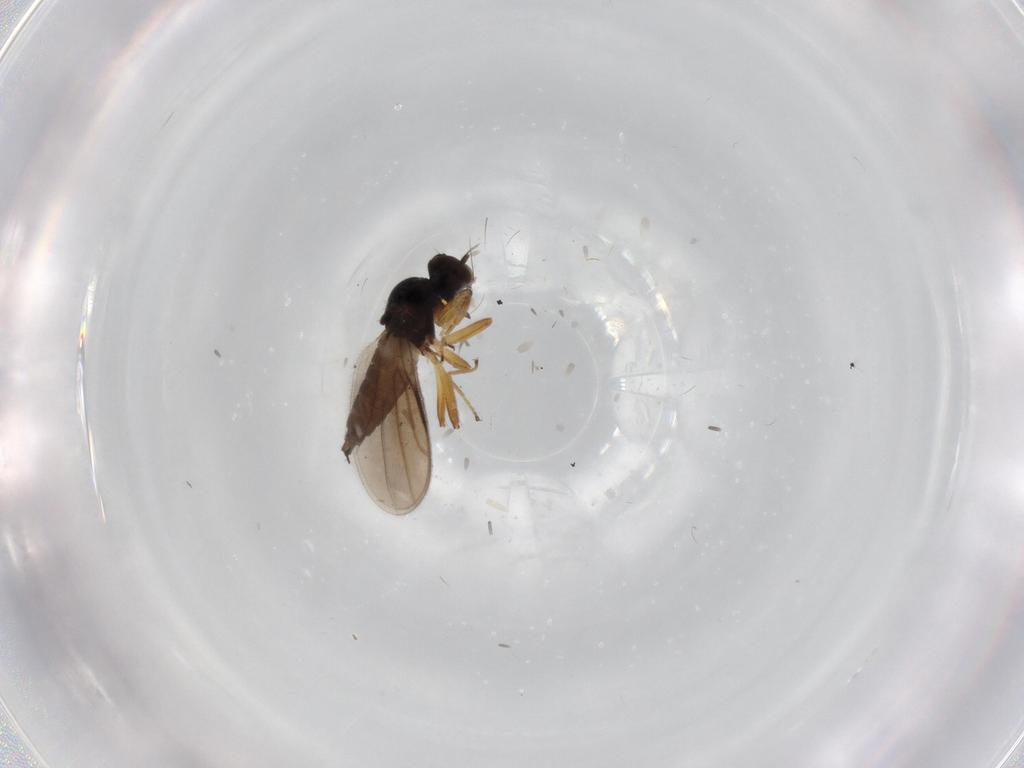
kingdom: Animalia
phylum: Arthropoda
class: Insecta
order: Diptera
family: Hybotidae
